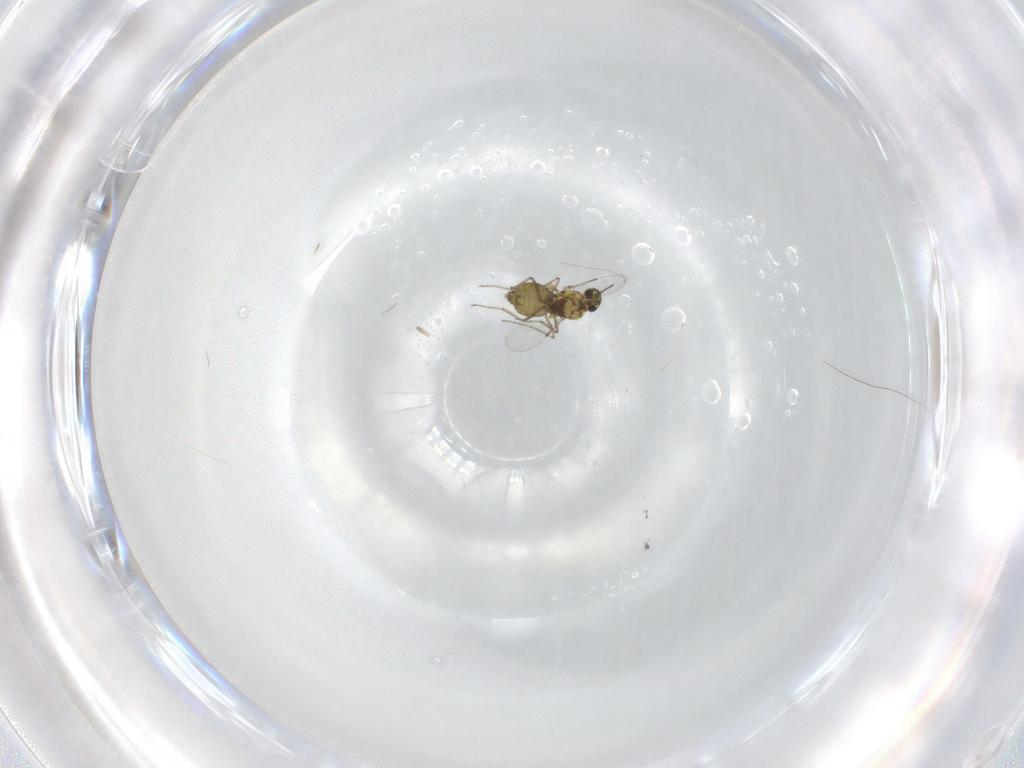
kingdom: Animalia
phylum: Arthropoda
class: Insecta
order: Diptera
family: Ceratopogonidae
